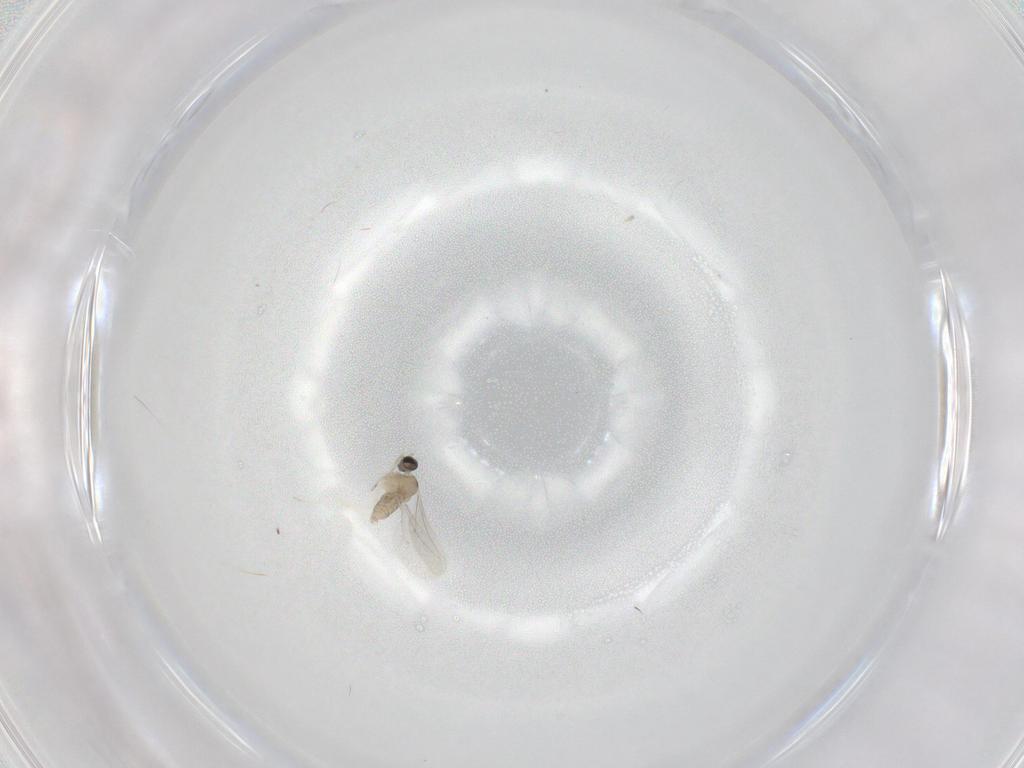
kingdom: Animalia
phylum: Arthropoda
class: Insecta
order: Diptera
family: Cecidomyiidae
